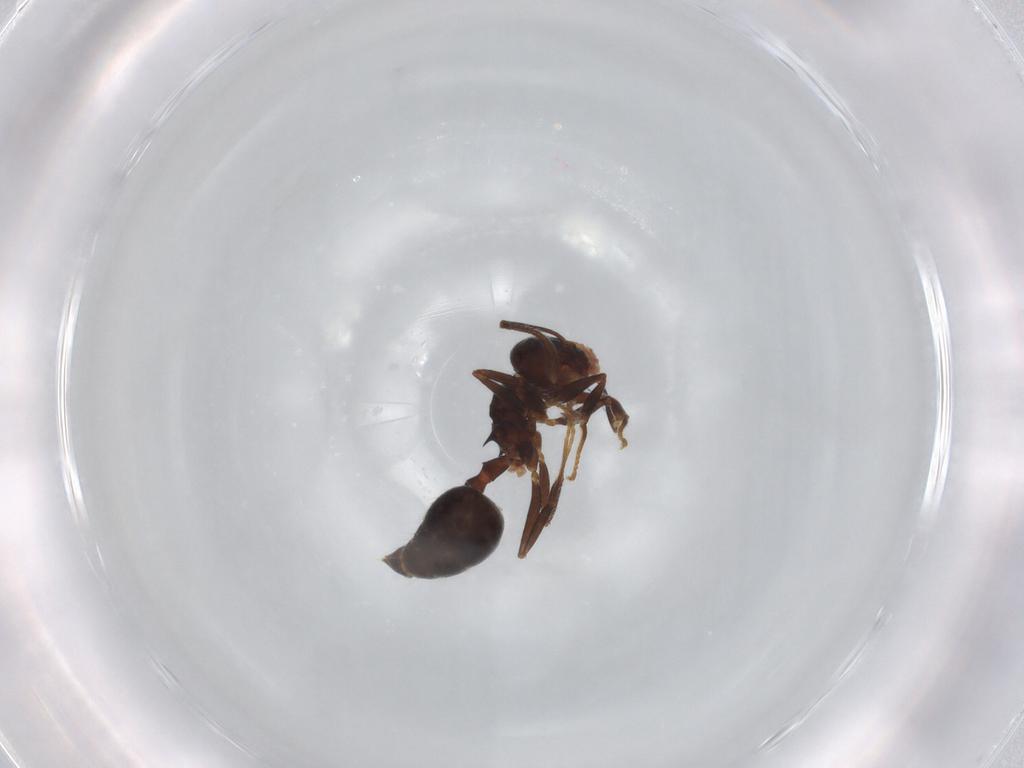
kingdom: Animalia
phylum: Arthropoda
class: Insecta
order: Hymenoptera
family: Formicidae
